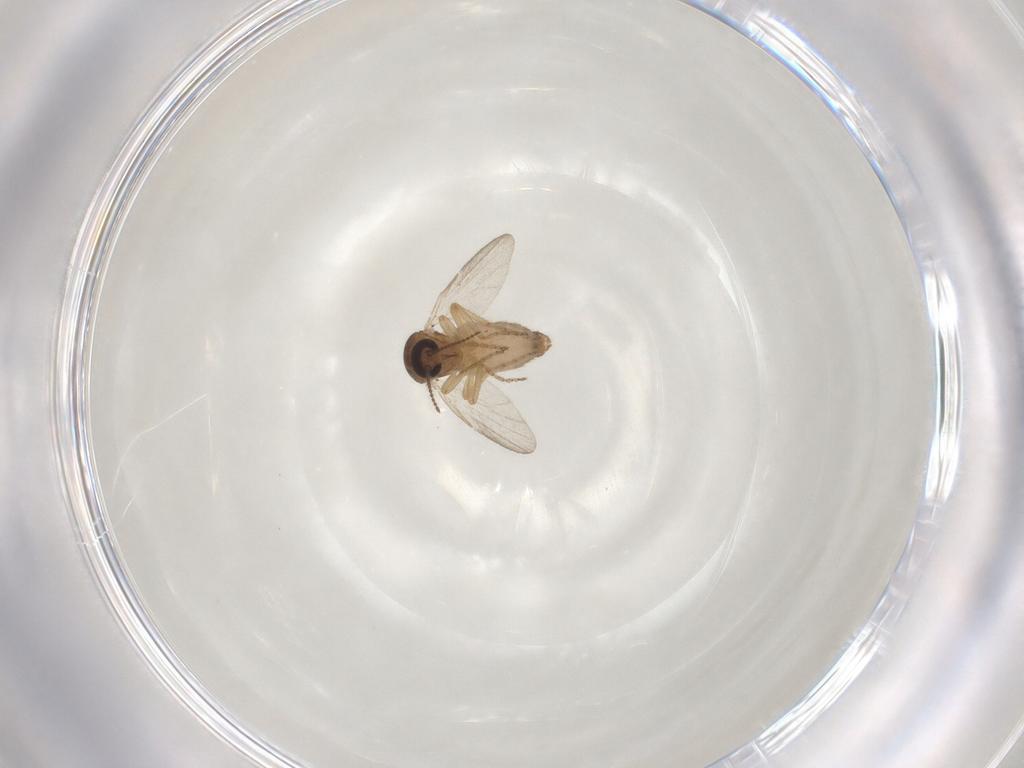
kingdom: Animalia
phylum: Arthropoda
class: Insecta
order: Diptera
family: Ceratopogonidae
